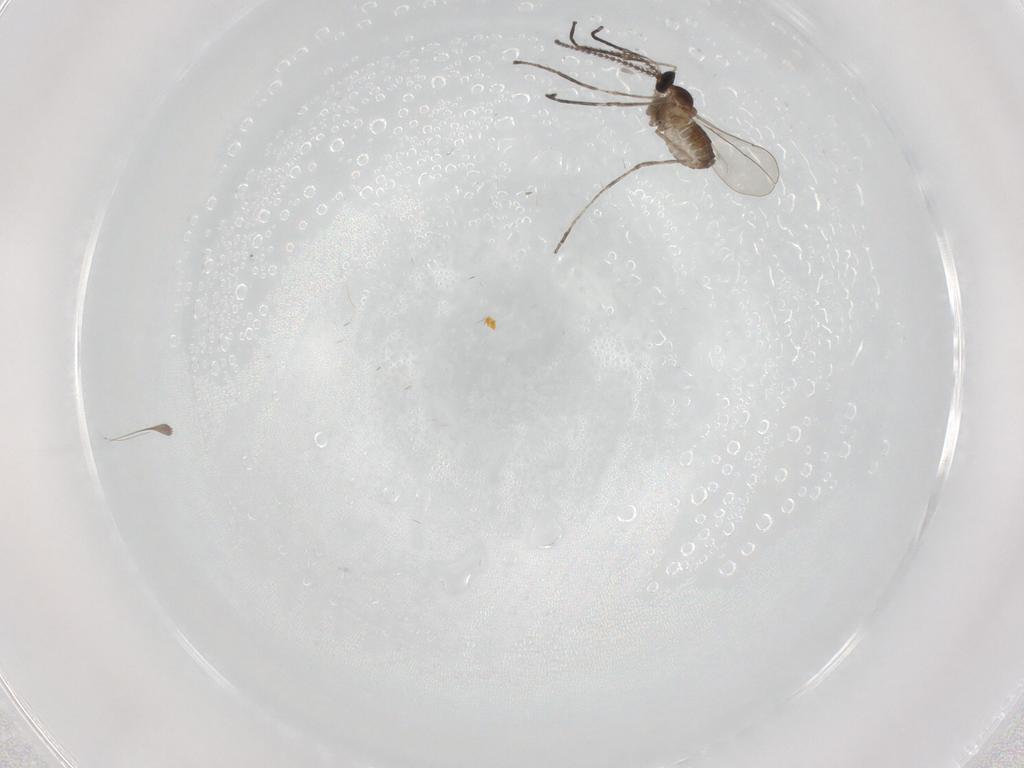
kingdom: Animalia
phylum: Arthropoda
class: Insecta
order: Diptera
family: Cecidomyiidae
